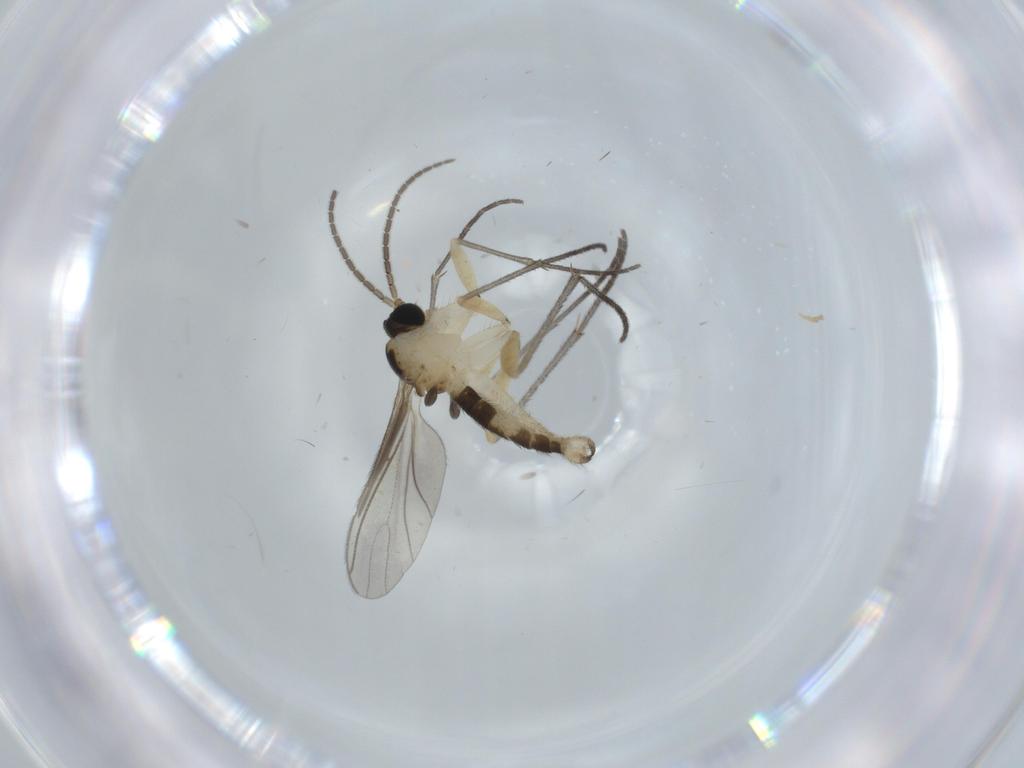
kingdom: Animalia
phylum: Arthropoda
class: Insecta
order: Diptera
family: Sciaridae
